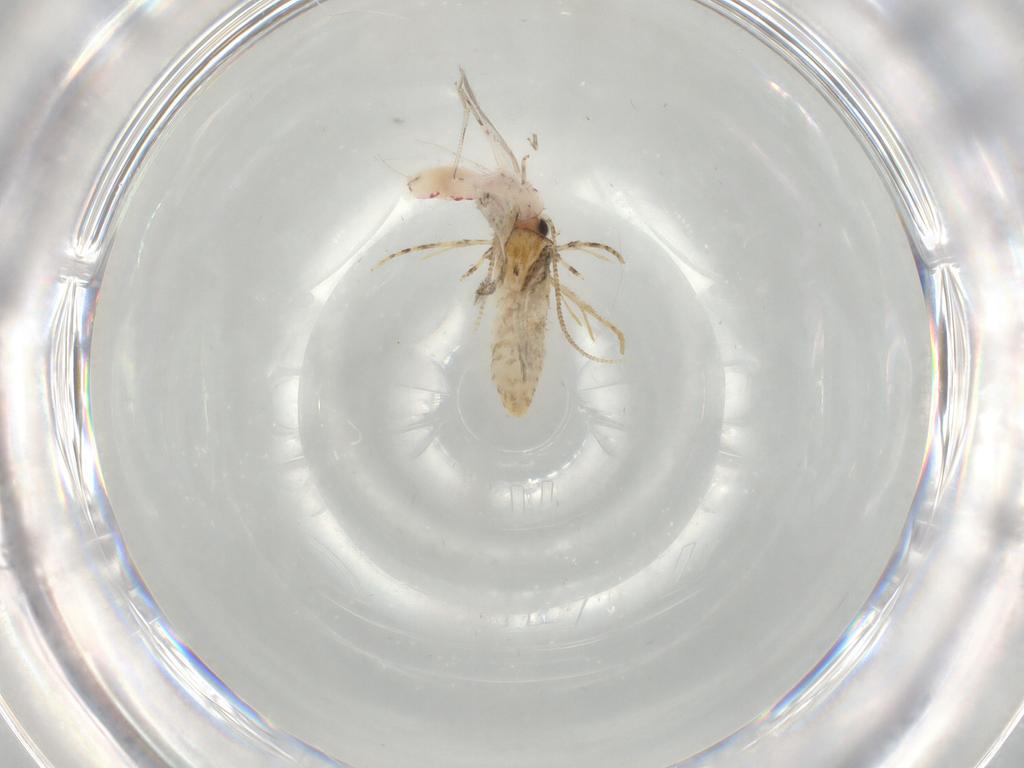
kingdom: Animalia
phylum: Arthropoda
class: Insecta
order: Lepidoptera
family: Tineidae
